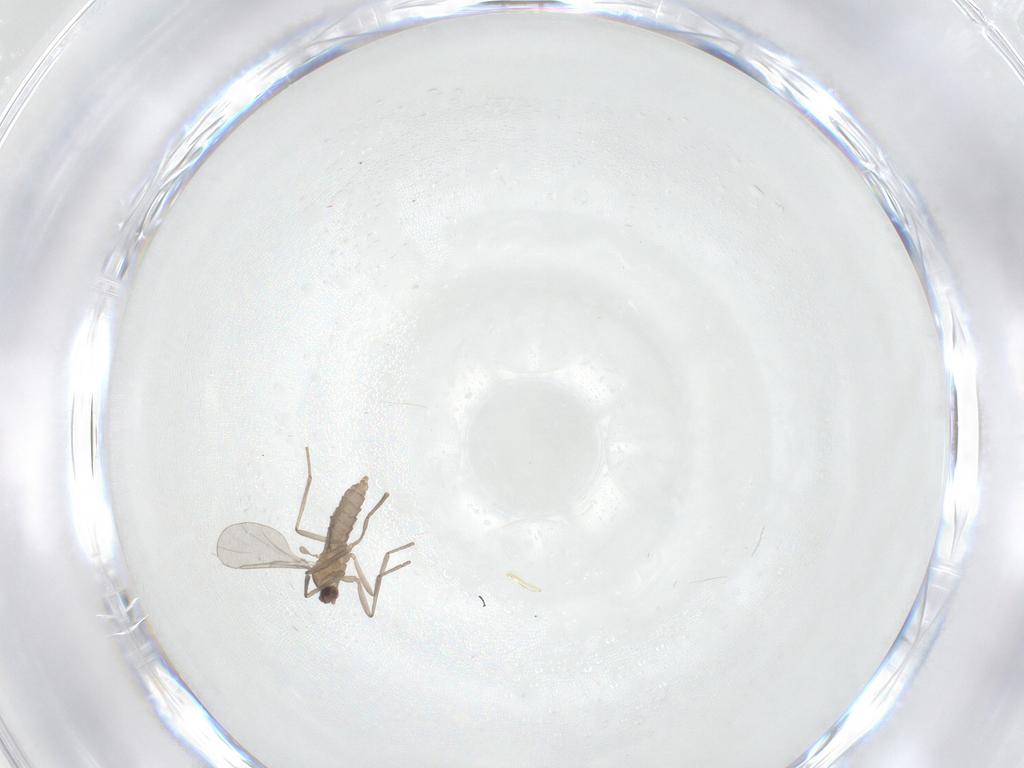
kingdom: Animalia
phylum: Arthropoda
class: Insecta
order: Diptera
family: Cecidomyiidae
